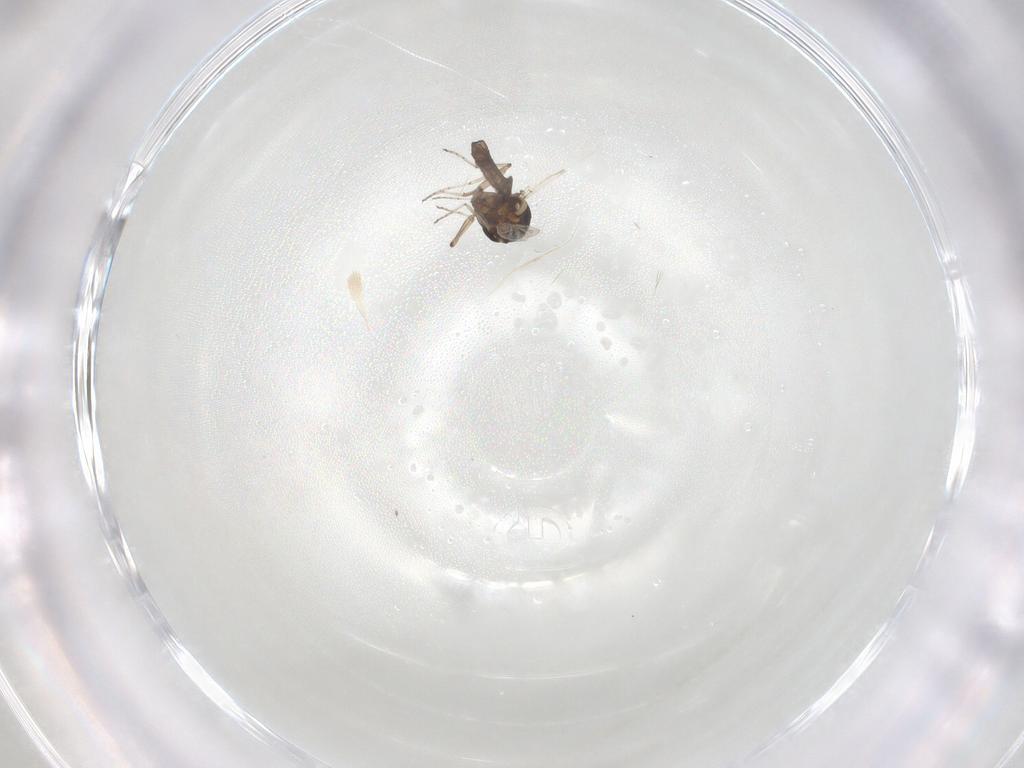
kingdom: Animalia
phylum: Arthropoda
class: Insecta
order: Diptera
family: Ceratopogonidae
